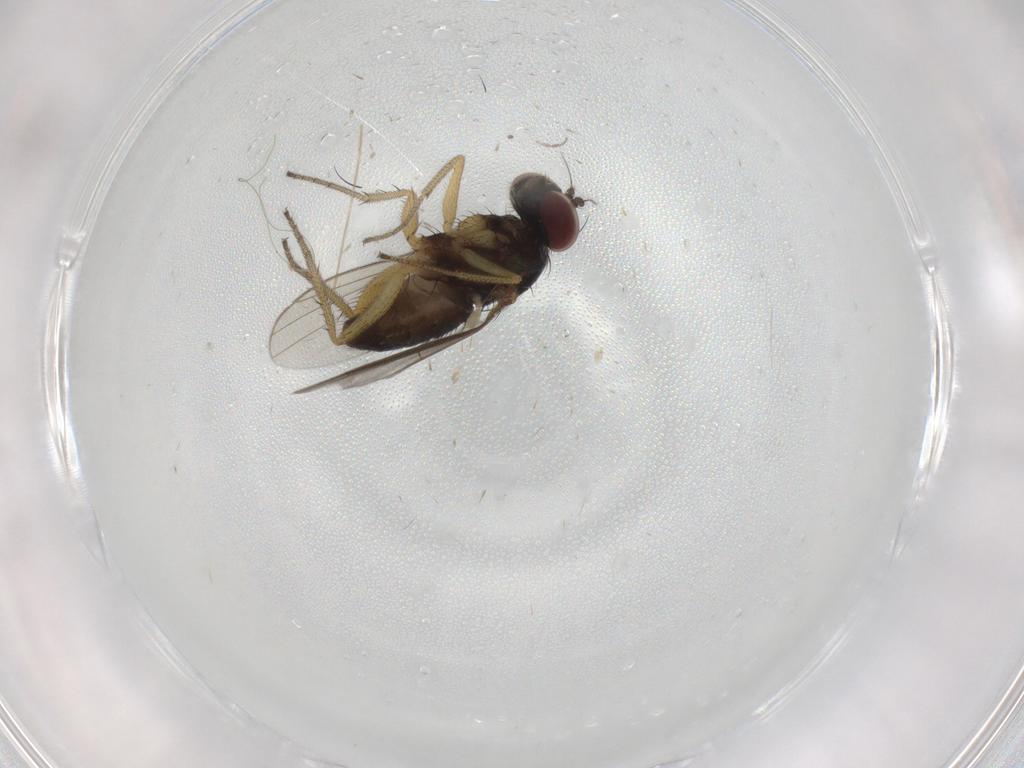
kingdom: Animalia
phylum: Arthropoda
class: Insecta
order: Diptera
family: Chironomidae
